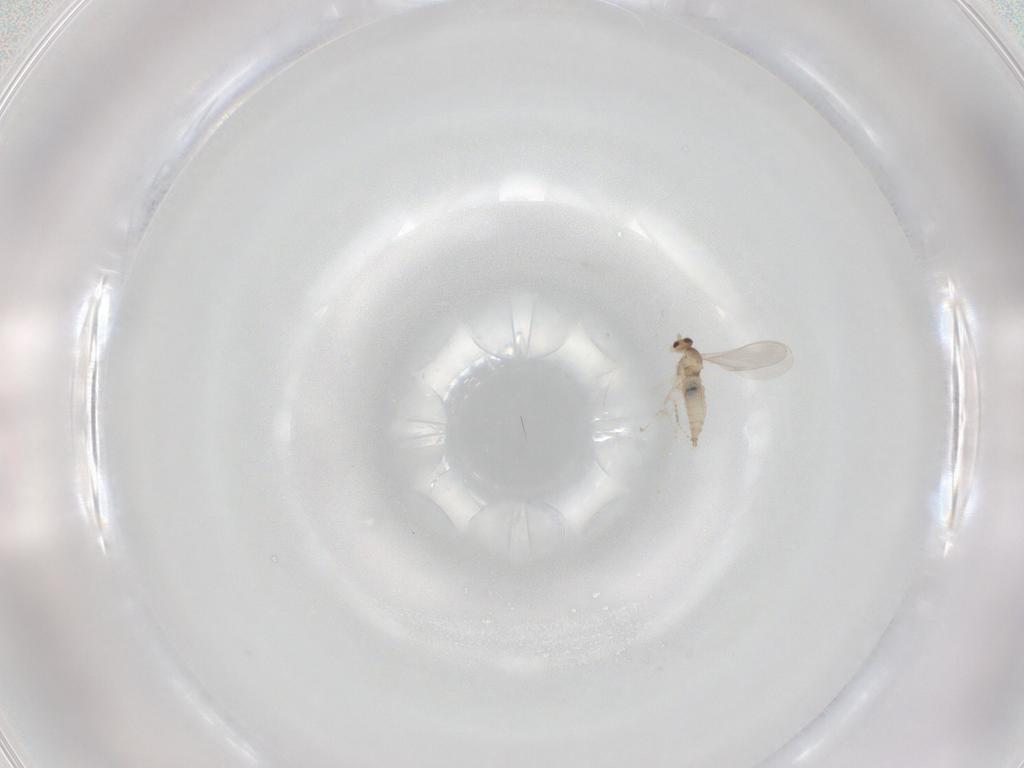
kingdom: Animalia
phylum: Arthropoda
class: Insecta
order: Diptera
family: Cecidomyiidae
